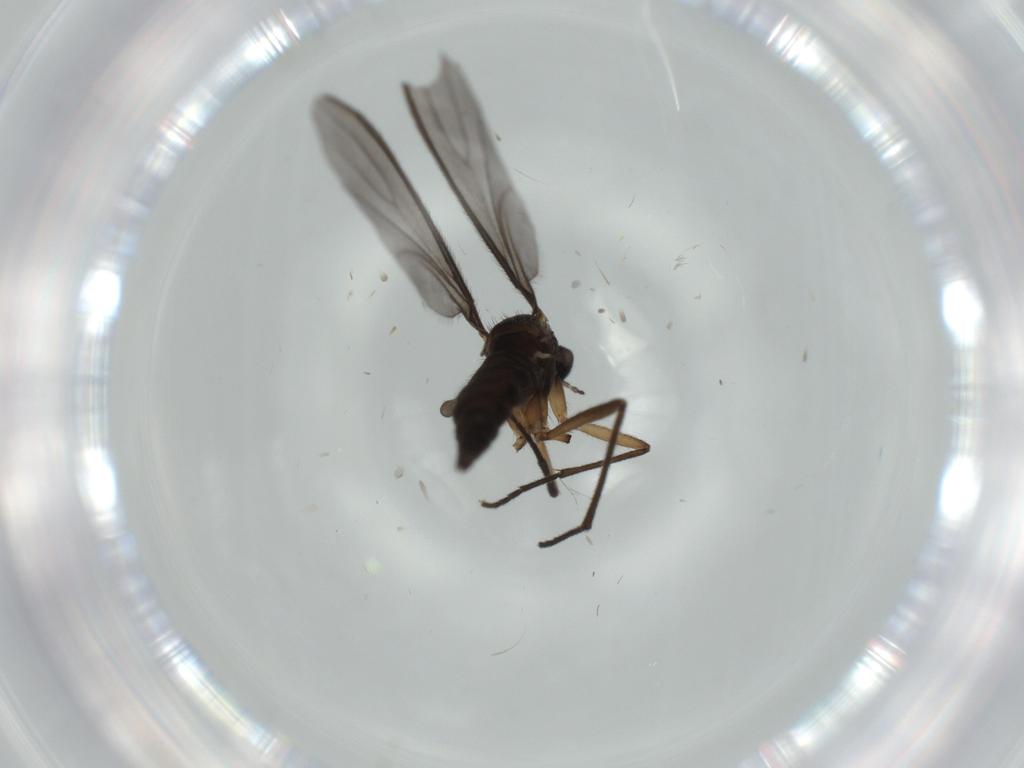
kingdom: Animalia
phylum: Arthropoda
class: Insecta
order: Diptera
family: Sciaridae
